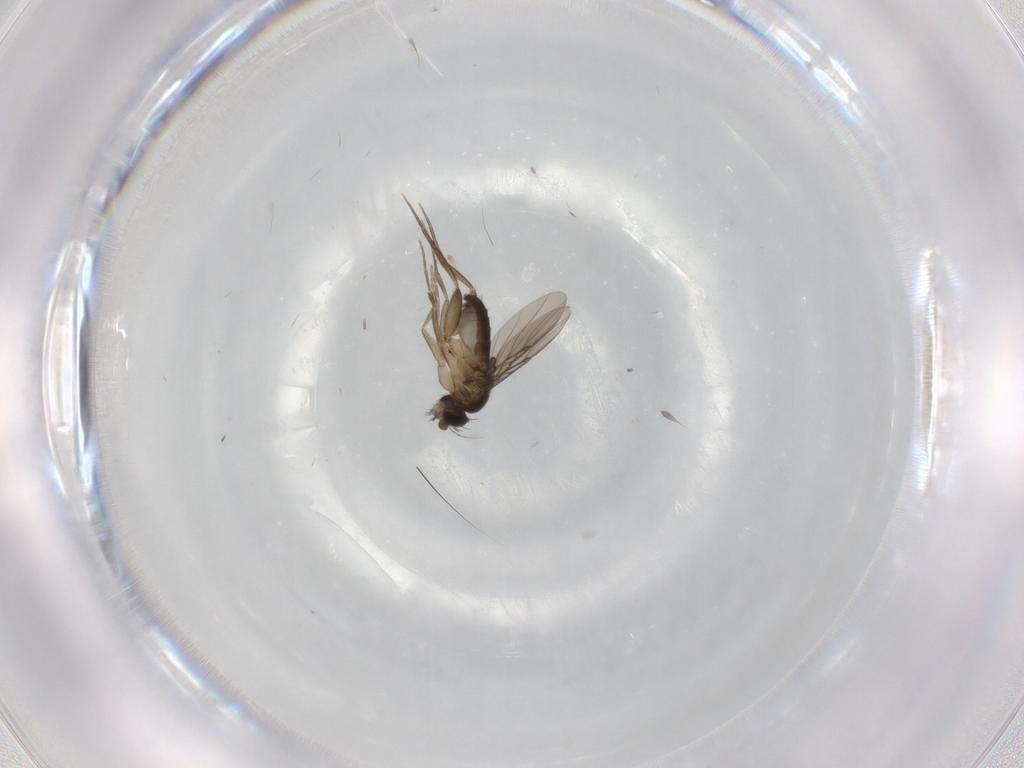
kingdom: Animalia
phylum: Arthropoda
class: Insecta
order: Diptera
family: Phoridae
